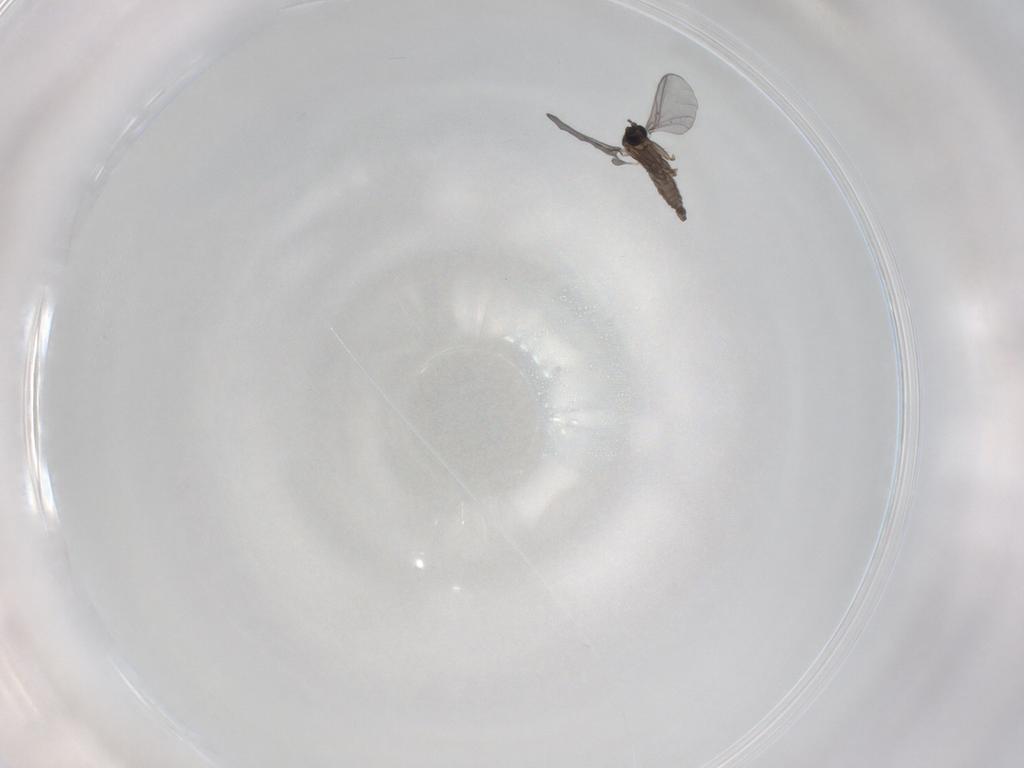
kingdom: Animalia
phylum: Arthropoda
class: Insecta
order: Diptera
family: Sciaridae
